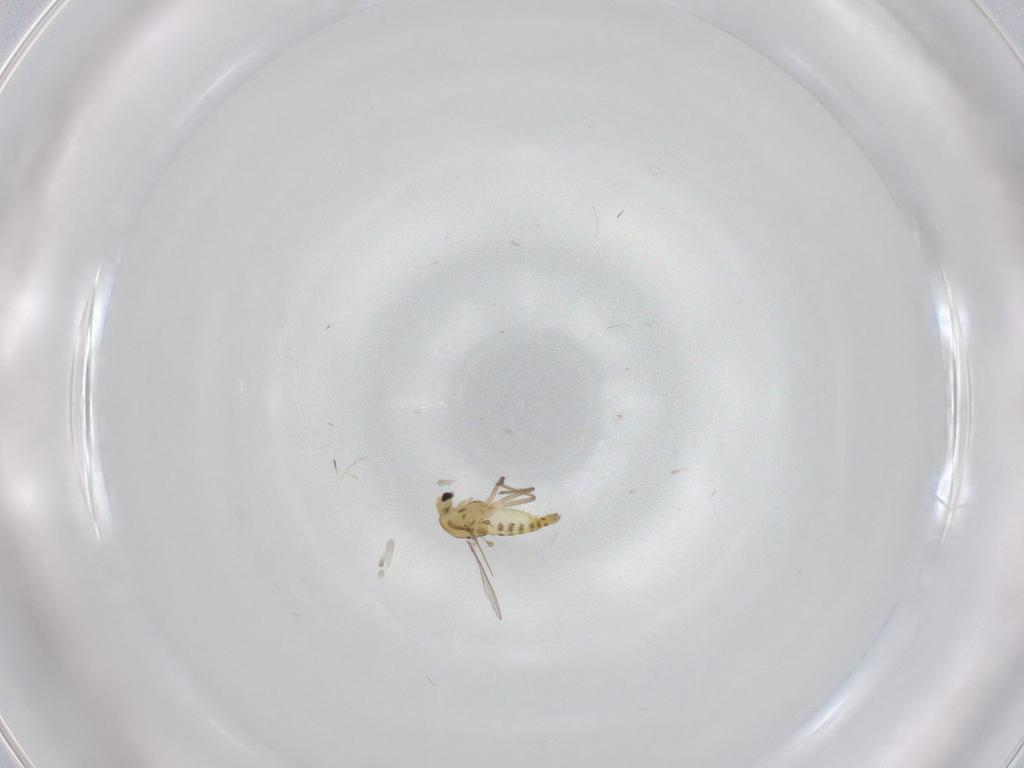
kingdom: Animalia
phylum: Arthropoda
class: Insecta
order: Diptera
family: Chironomidae
